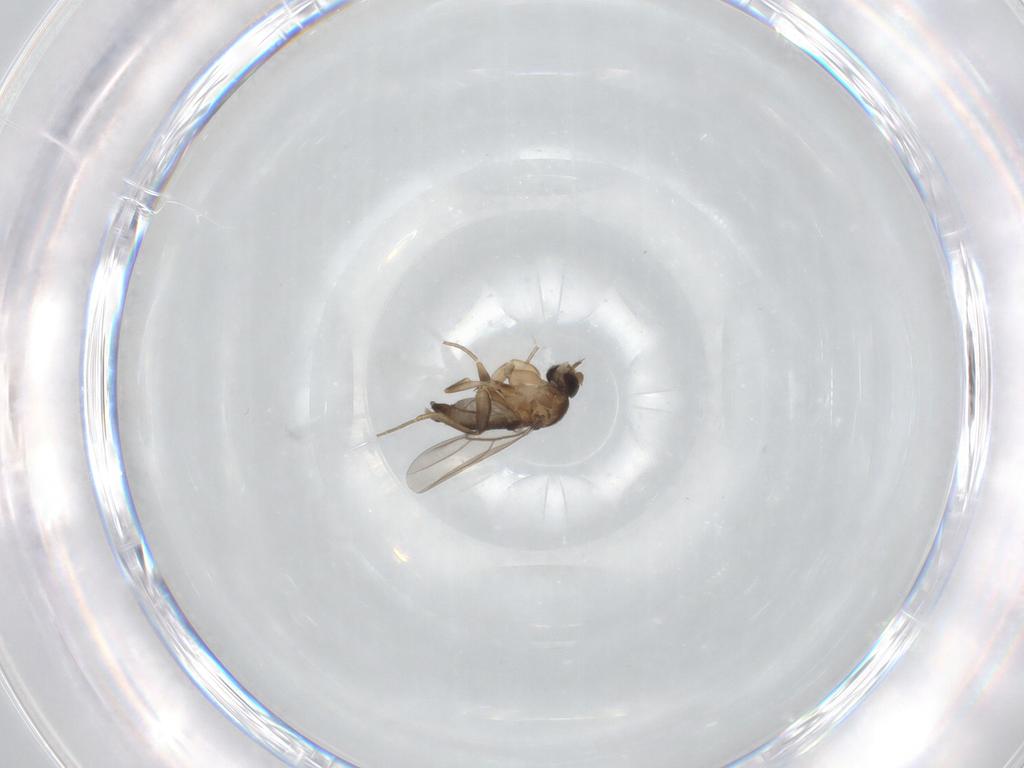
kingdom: Animalia
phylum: Arthropoda
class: Insecta
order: Diptera
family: Phoridae
